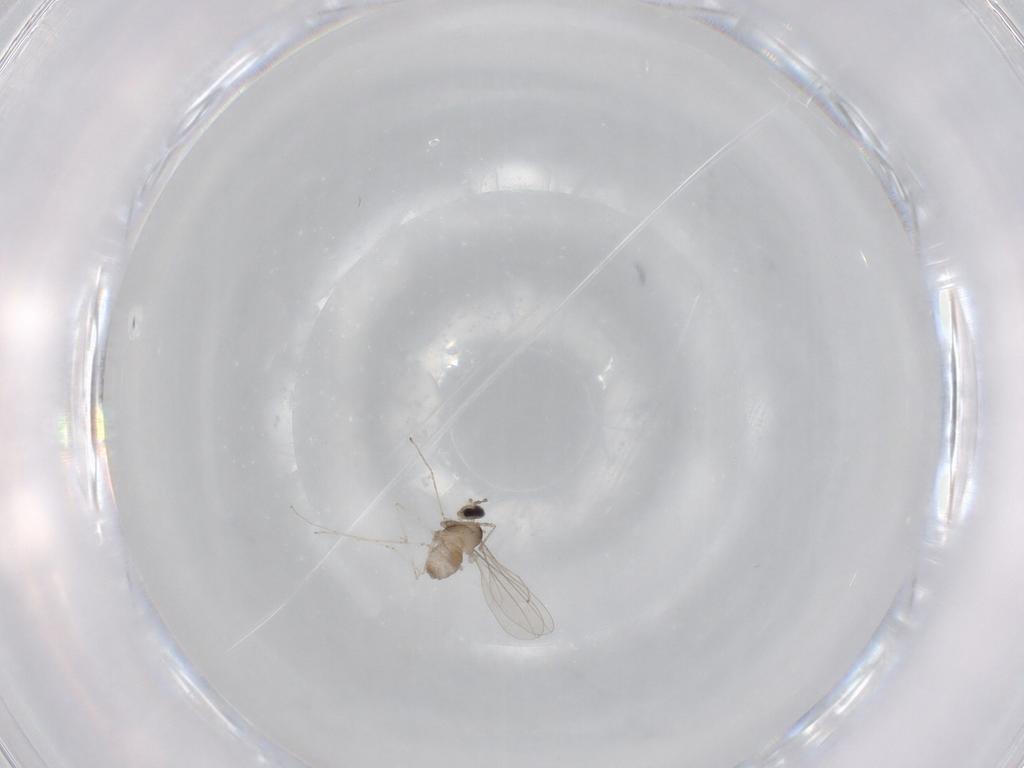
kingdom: Animalia
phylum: Arthropoda
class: Insecta
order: Diptera
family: Cecidomyiidae
